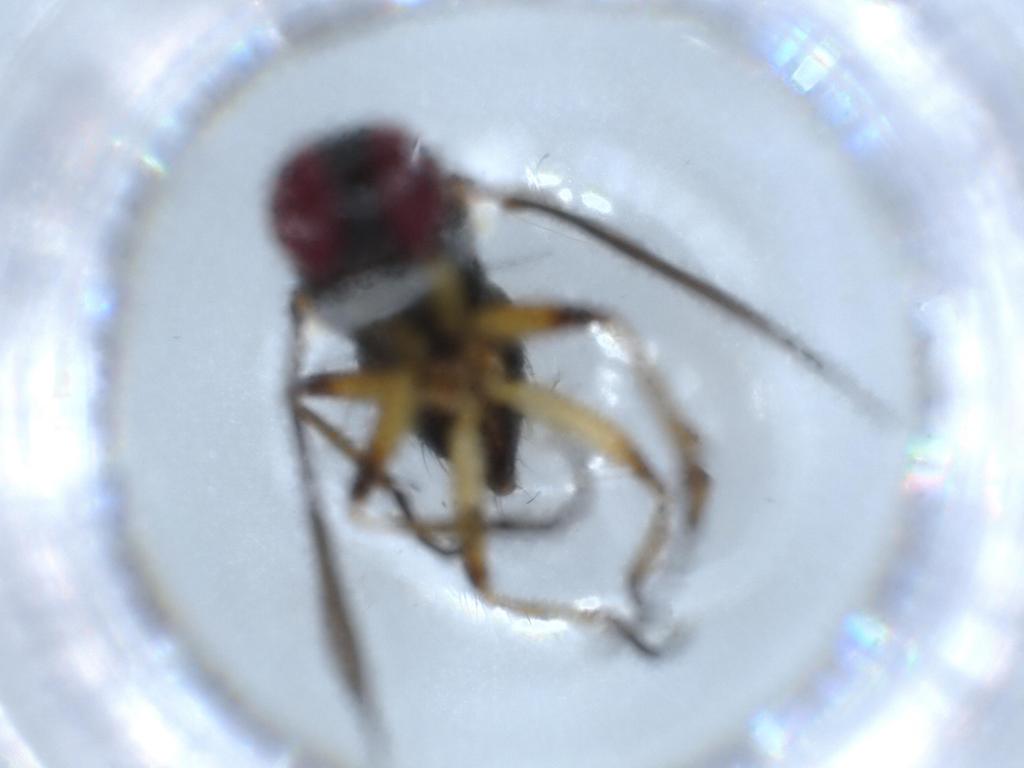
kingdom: Animalia
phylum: Arthropoda
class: Insecta
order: Diptera
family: Muscidae
